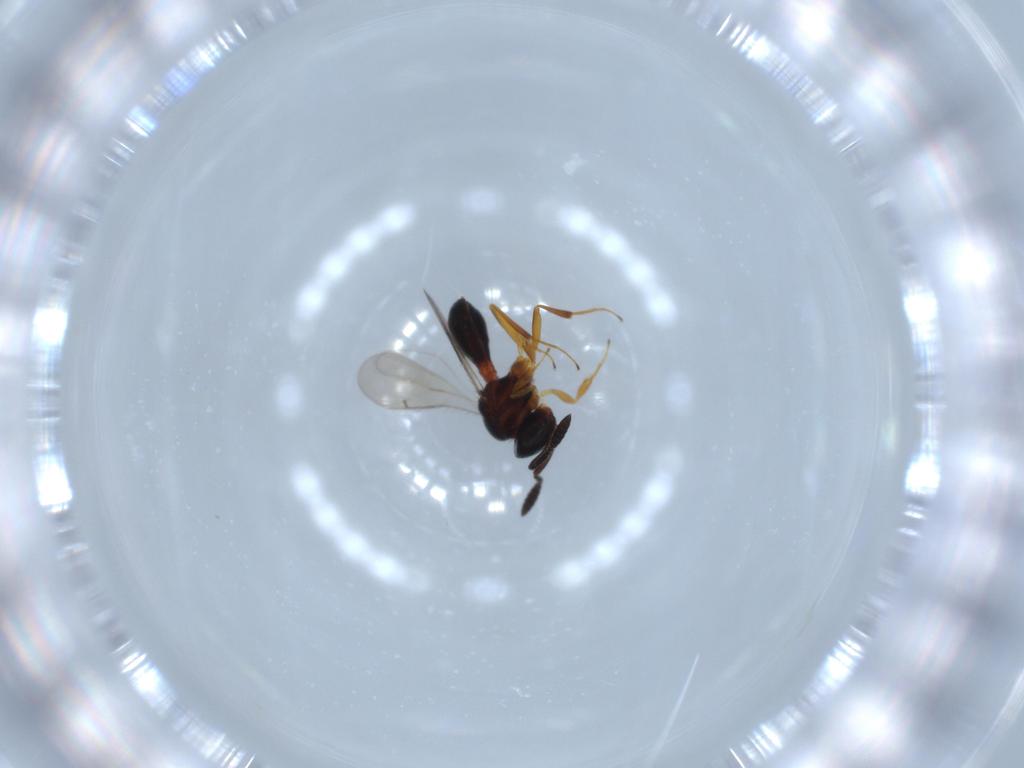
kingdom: Animalia
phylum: Arthropoda
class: Insecta
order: Hymenoptera
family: Scelionidae
